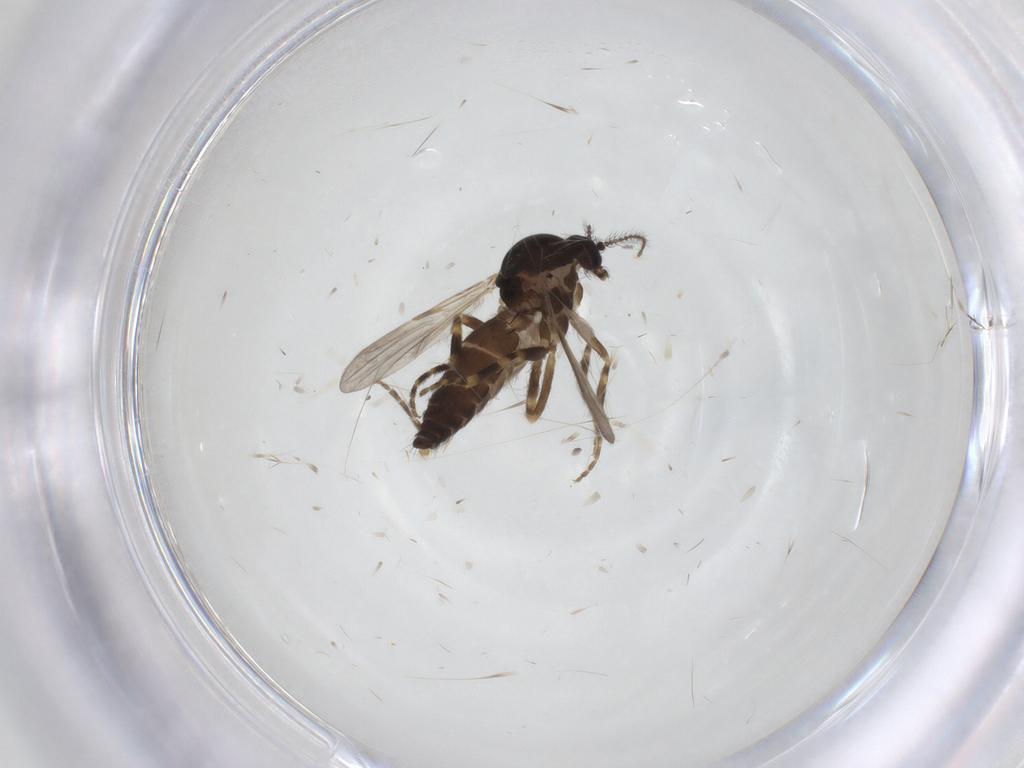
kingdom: Animalia
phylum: Arthropoda
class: Insecta
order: Diptera
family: Ceratopogonidae
